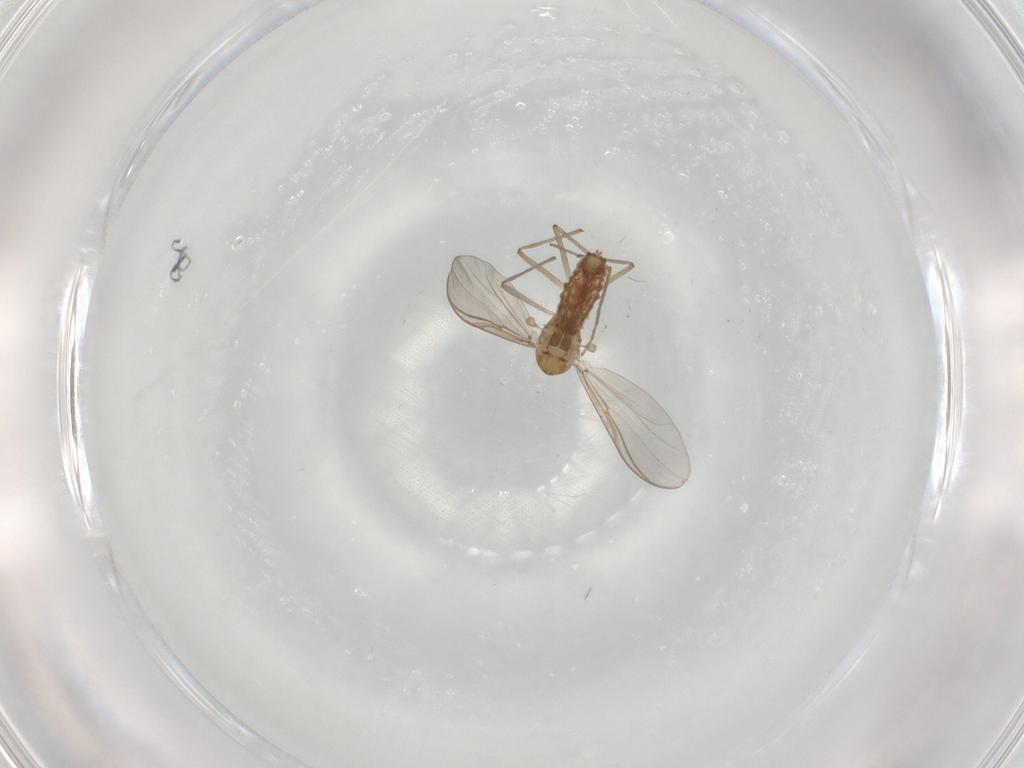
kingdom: Animalia
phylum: Arthropoda
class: Insecta
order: Diptera
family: Chironomidae
